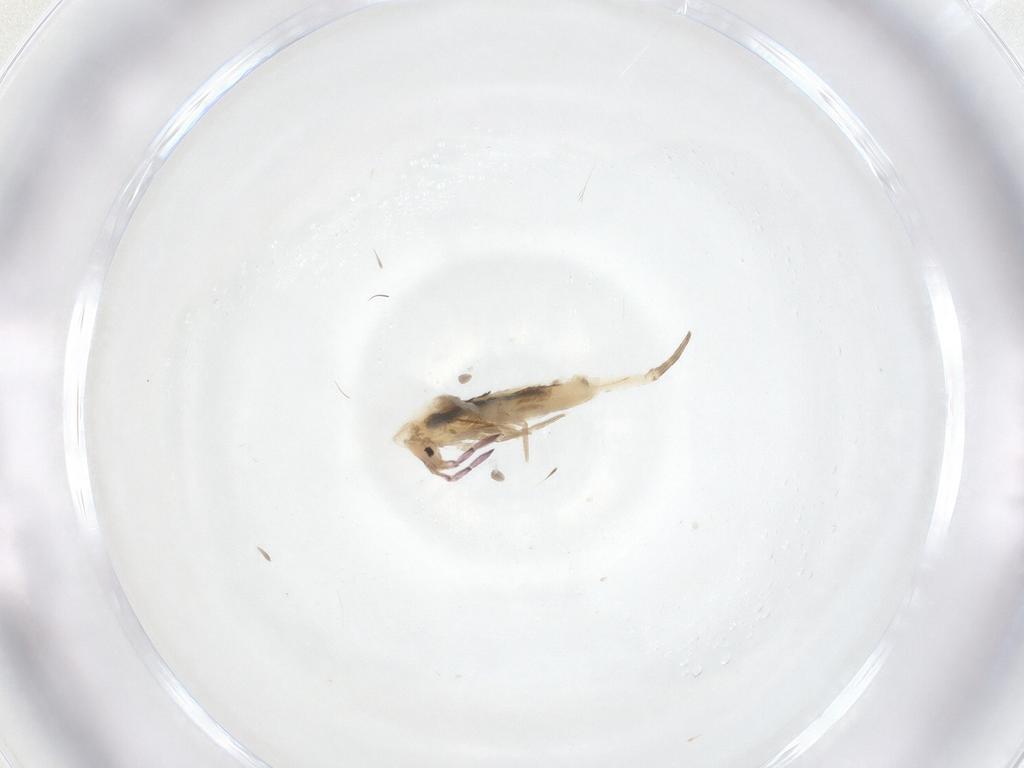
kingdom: Animalia
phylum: Arthropoda
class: Collembola
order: Entomobryomorpha
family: Entomobryidae
